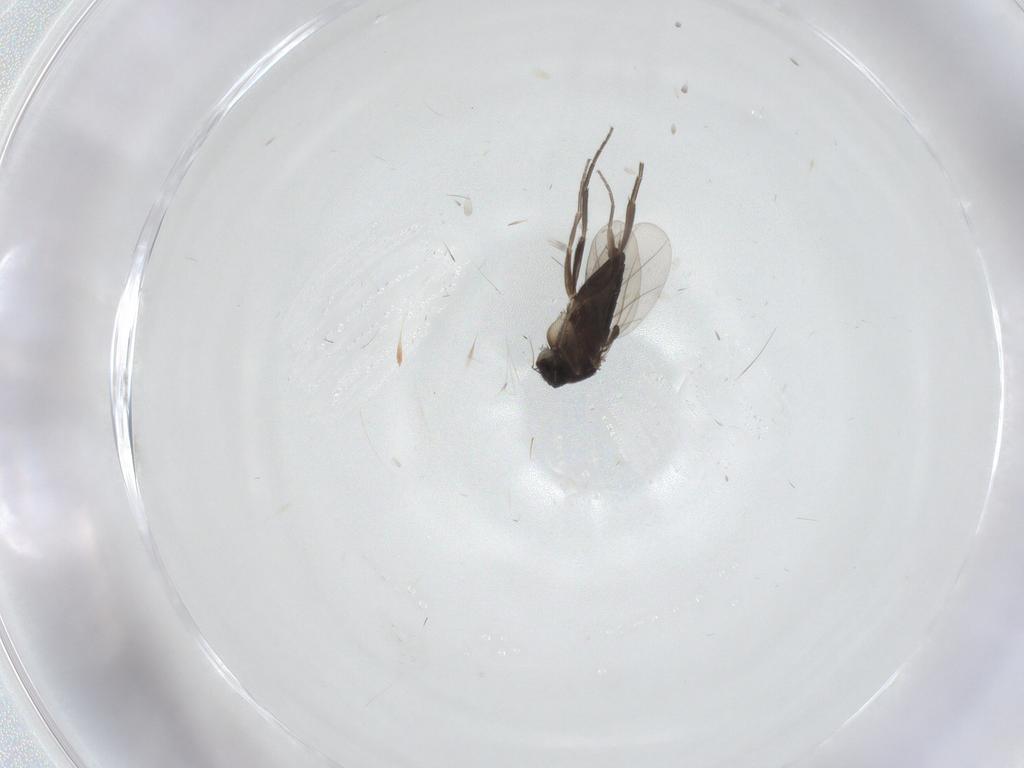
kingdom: Animalia
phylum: Arthropoda
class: Insecta
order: Diptera
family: Phoridae
